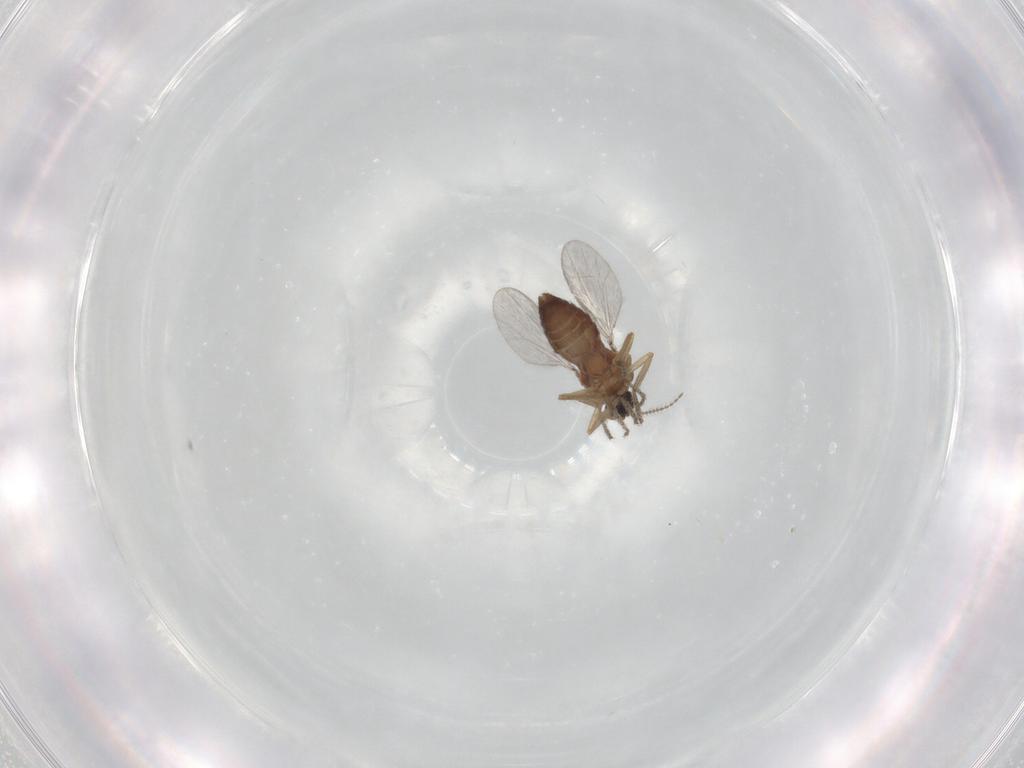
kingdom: Animalia
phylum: Arthropoda
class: Insecta
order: Diptera
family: Ceratopogonidae
